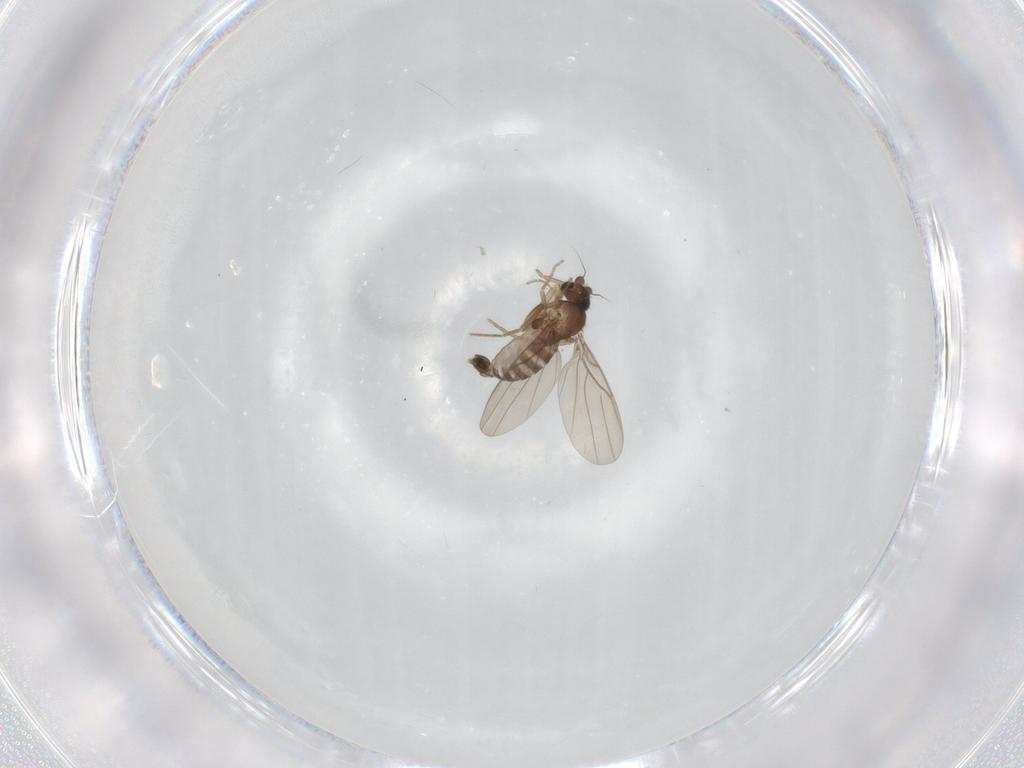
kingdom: Animalia
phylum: Arthropoda
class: Insecta
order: Diptera
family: Phoridae
